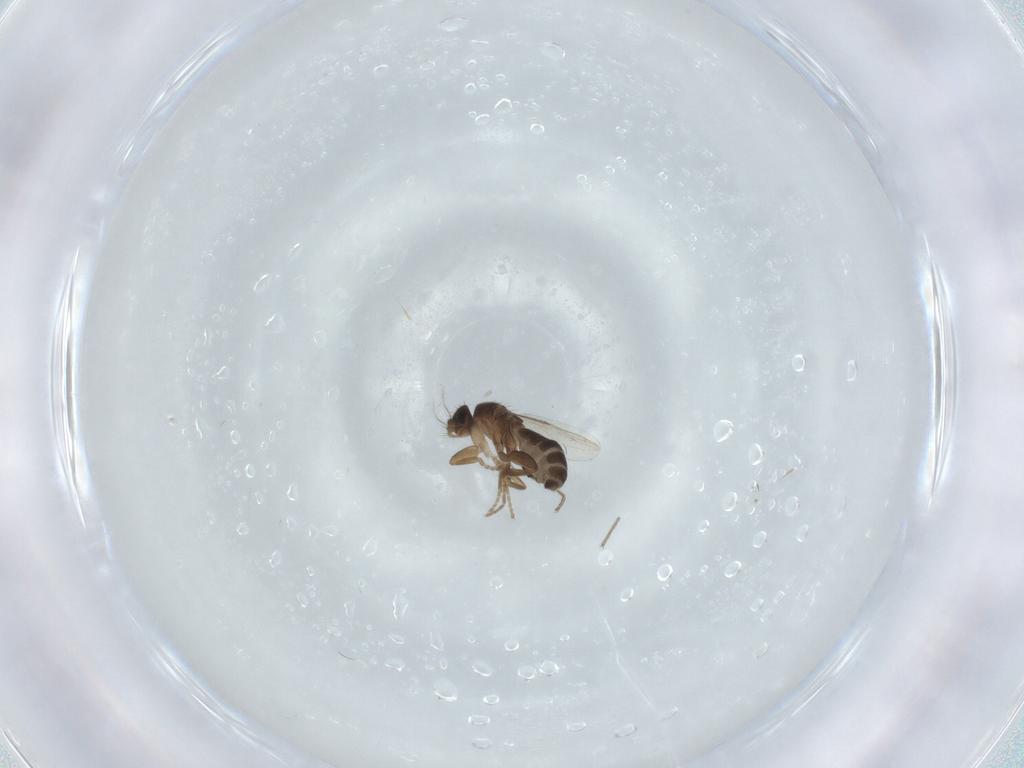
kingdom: Animalia
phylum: Arthropoda
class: Insecta
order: Diptera
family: Phoridae
